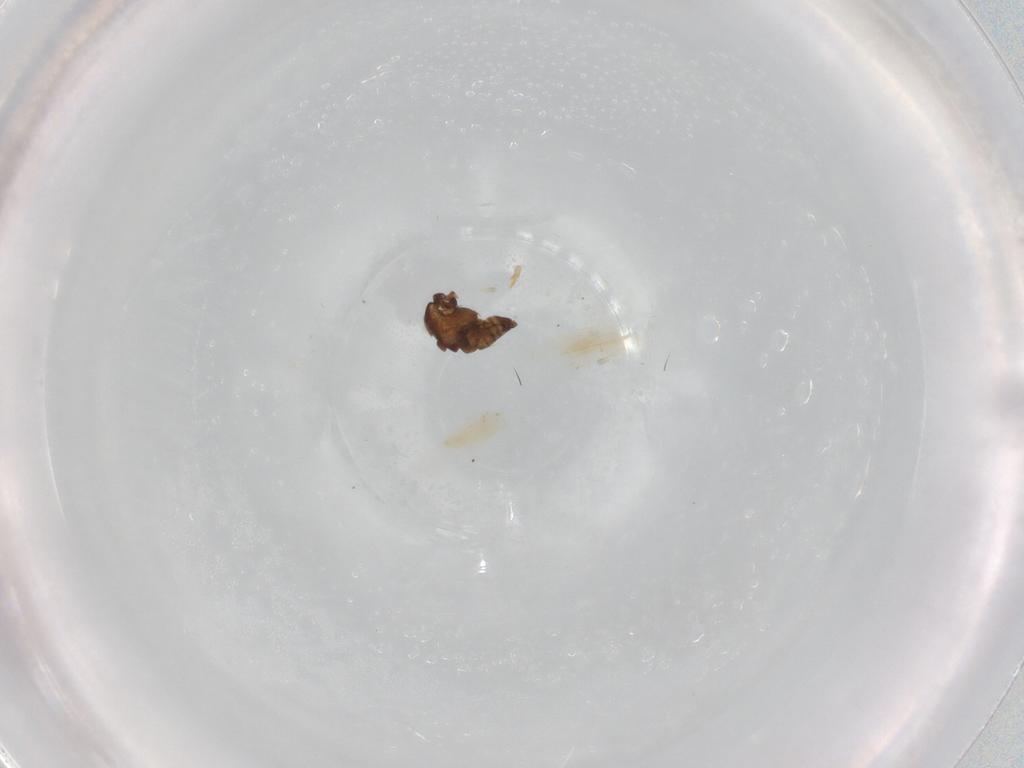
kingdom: Animalia
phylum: Arthropoda
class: Insecta
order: Diptera
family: Chironomidae
